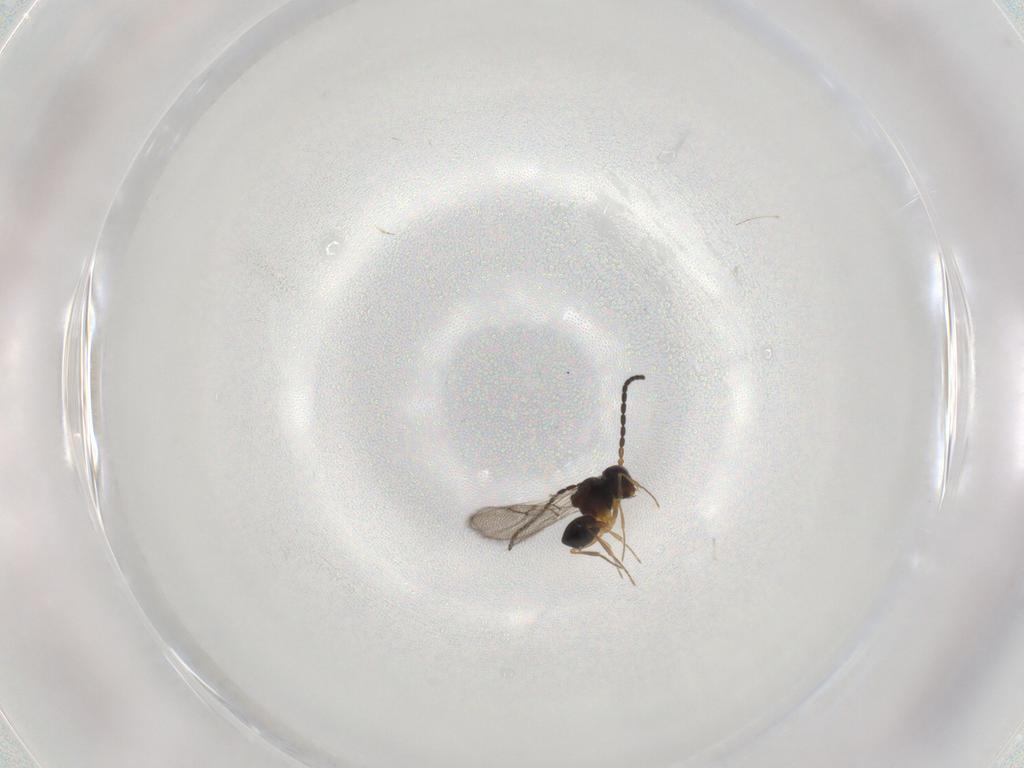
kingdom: Animalia
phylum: Arthropoda
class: Insecta
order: Hymenoptera
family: Figitidae
